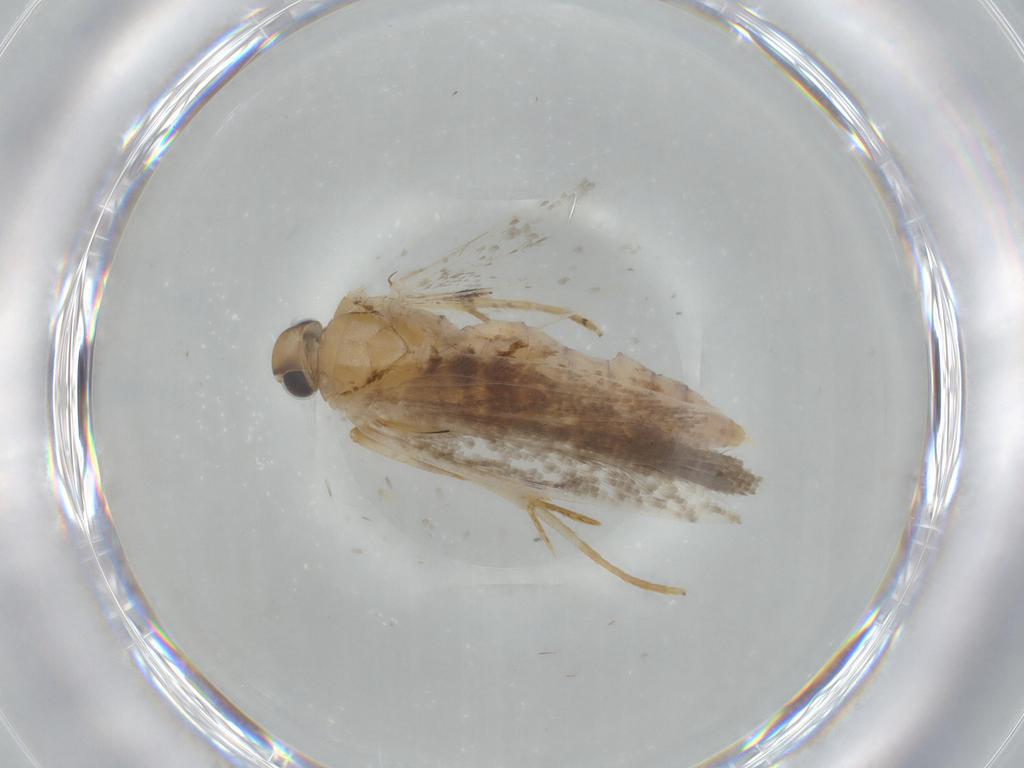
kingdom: Animalia
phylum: Arthropoda
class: Insecta
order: Lepidoptera
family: Gelechiidae
